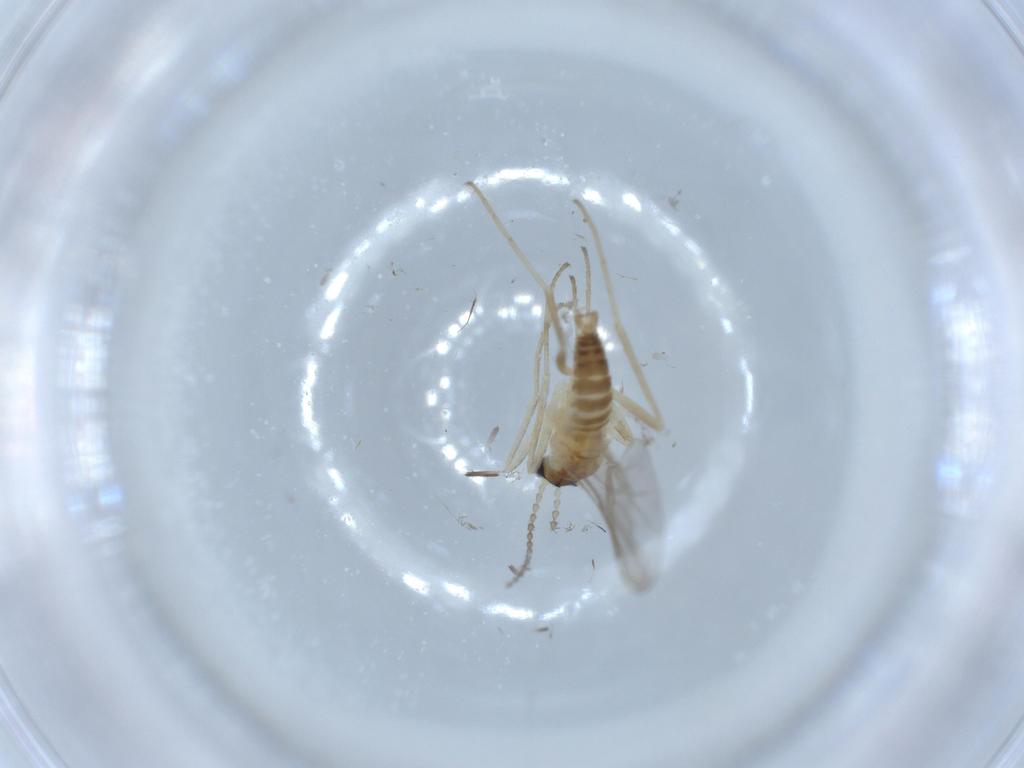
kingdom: Animalia
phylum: Arthropoda
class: Insecta
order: Diptera
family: Cecidomyiidae
